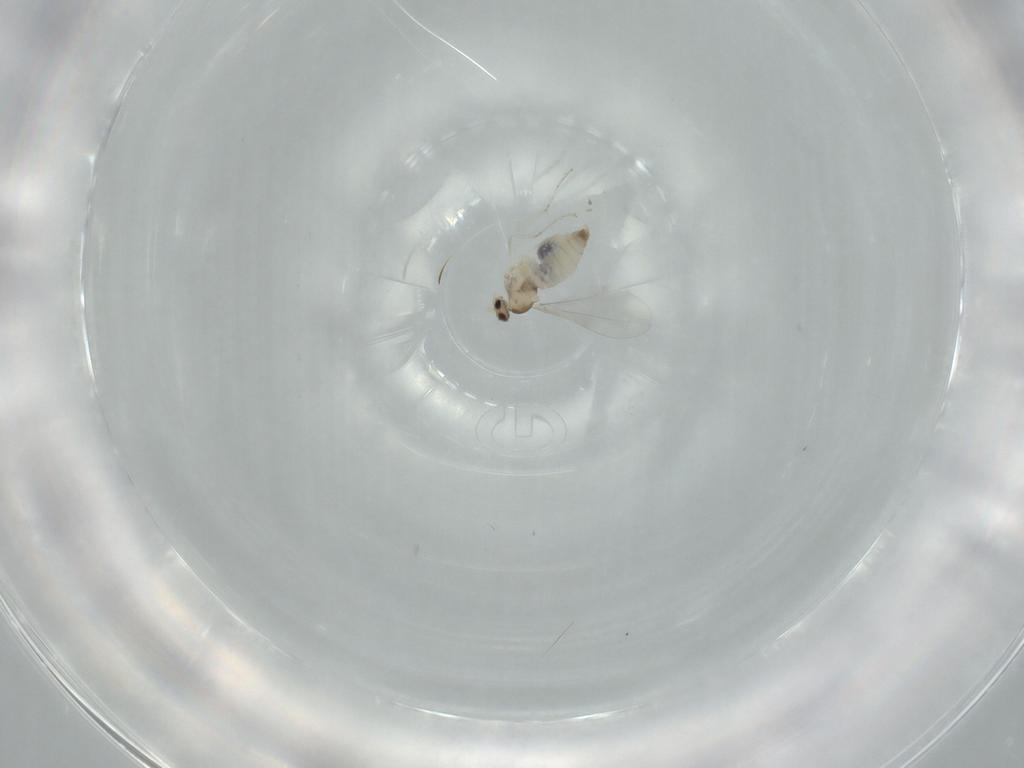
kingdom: Animalia
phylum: Arthropoda
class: Insecta
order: Diptera
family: Cecidomyiidae
